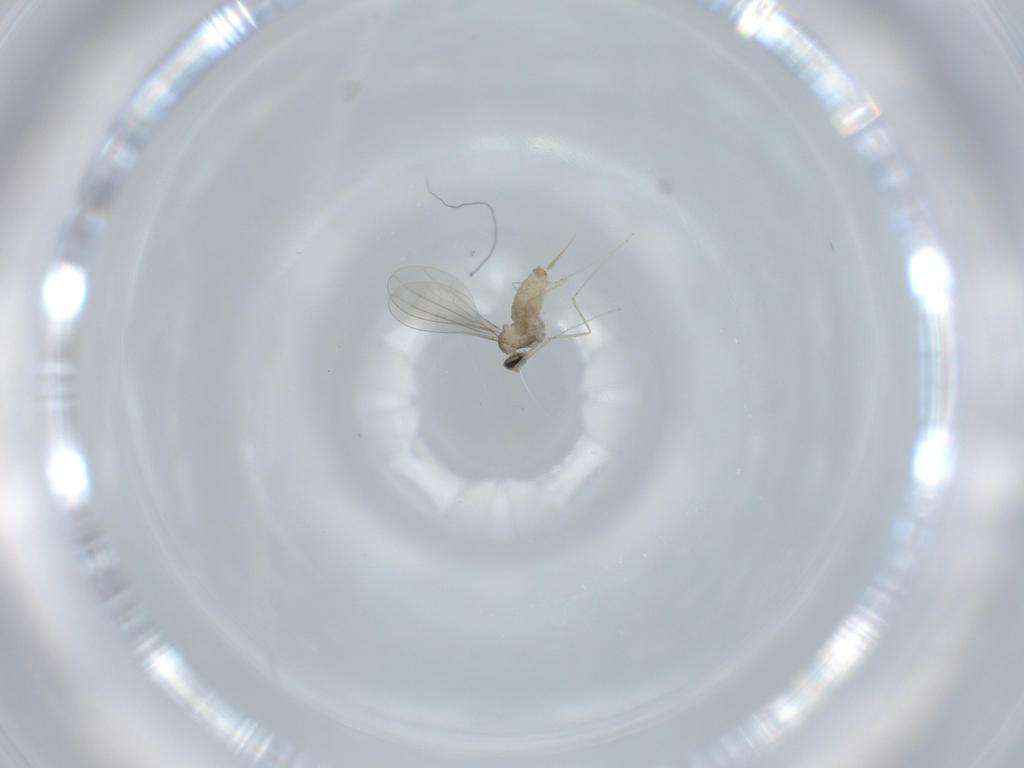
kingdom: Animalia
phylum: Arthropoda
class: Insecta
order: Diptera
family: Cecidomyiidae
